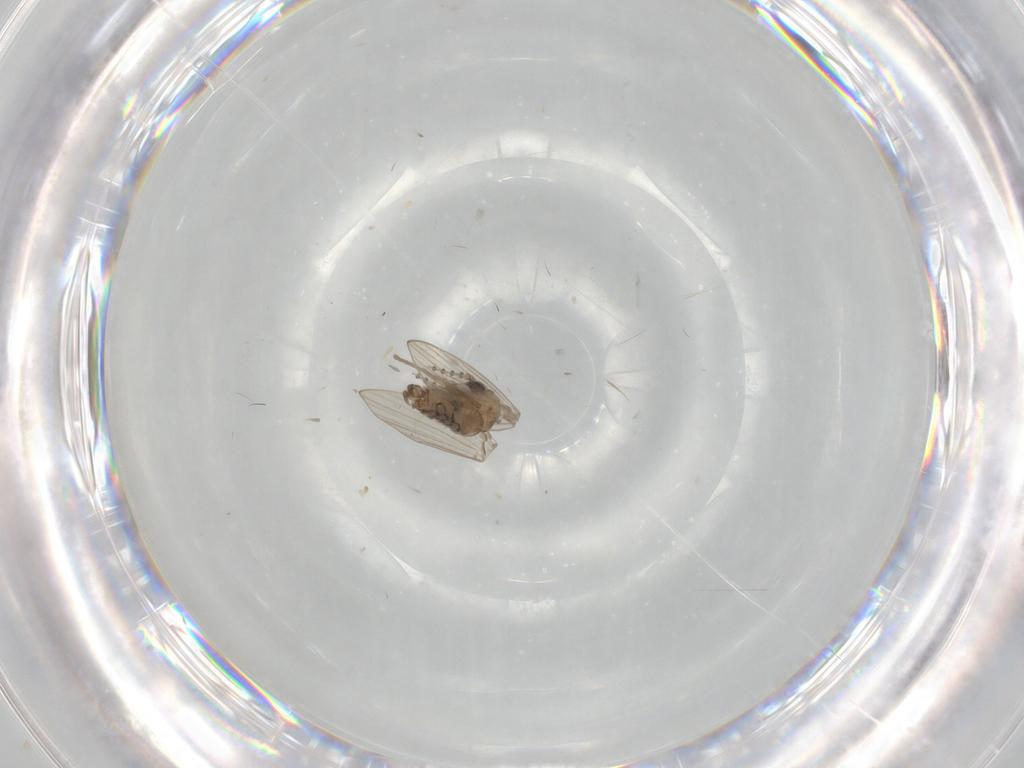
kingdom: Animalia
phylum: Arthropoda
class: Insecta
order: Diptera
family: Psychodidae
